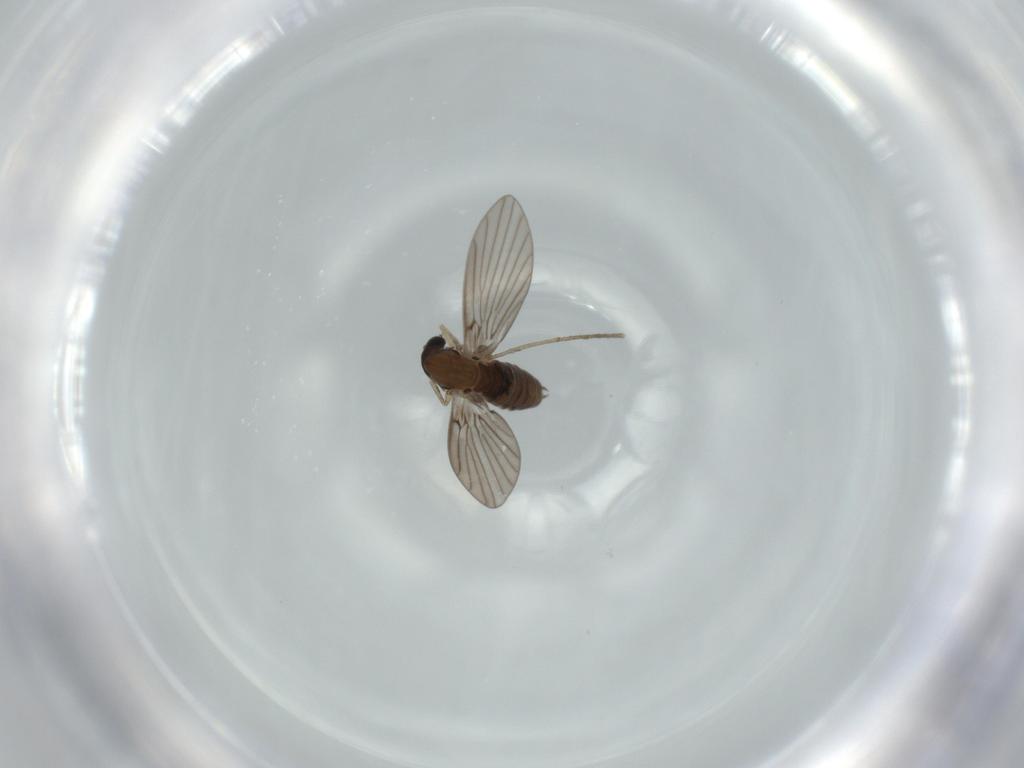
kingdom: Animalia
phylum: Arthropoda
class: Insecta
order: Diptera
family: Psychodidae
